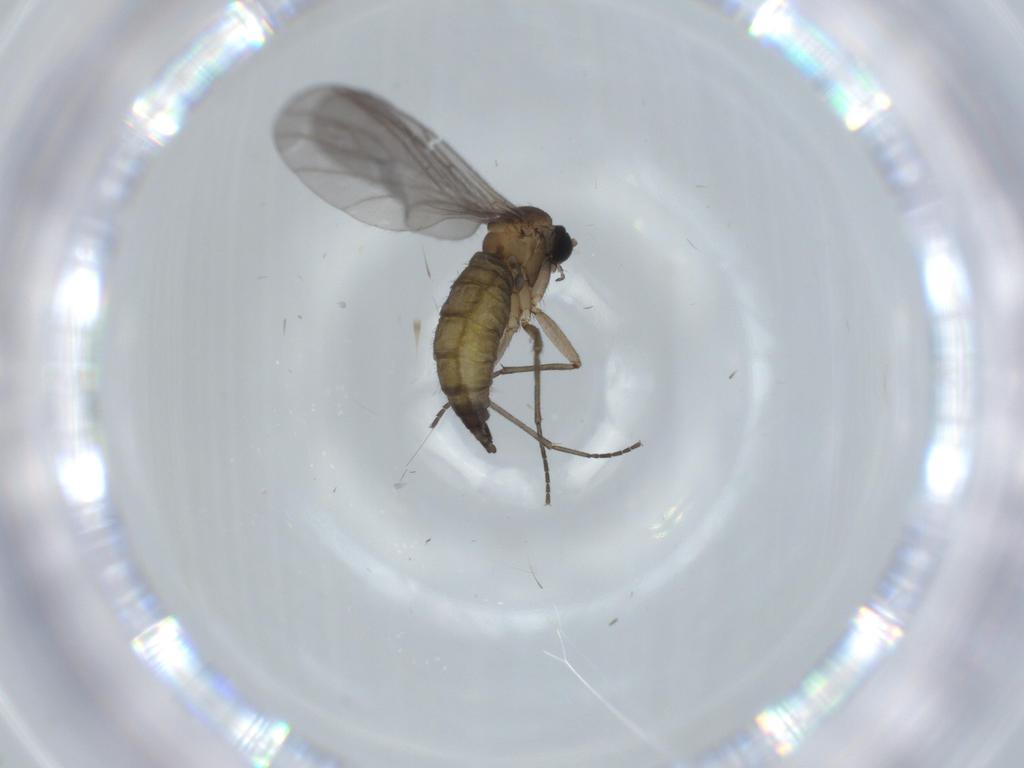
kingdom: Animalia
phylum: Arthropoda
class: Insecta
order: Diptera
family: Sciaridae
